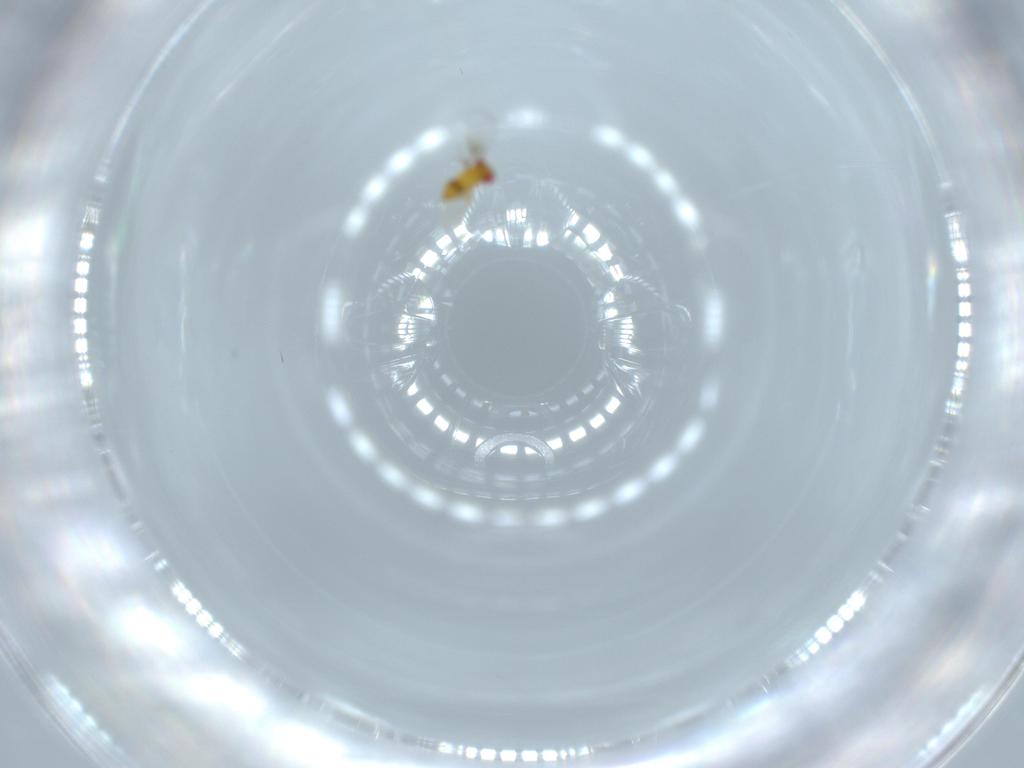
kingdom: Animalia
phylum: Arthropoda
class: Insecta
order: Hymenoptera
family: Trichogrammatidae
